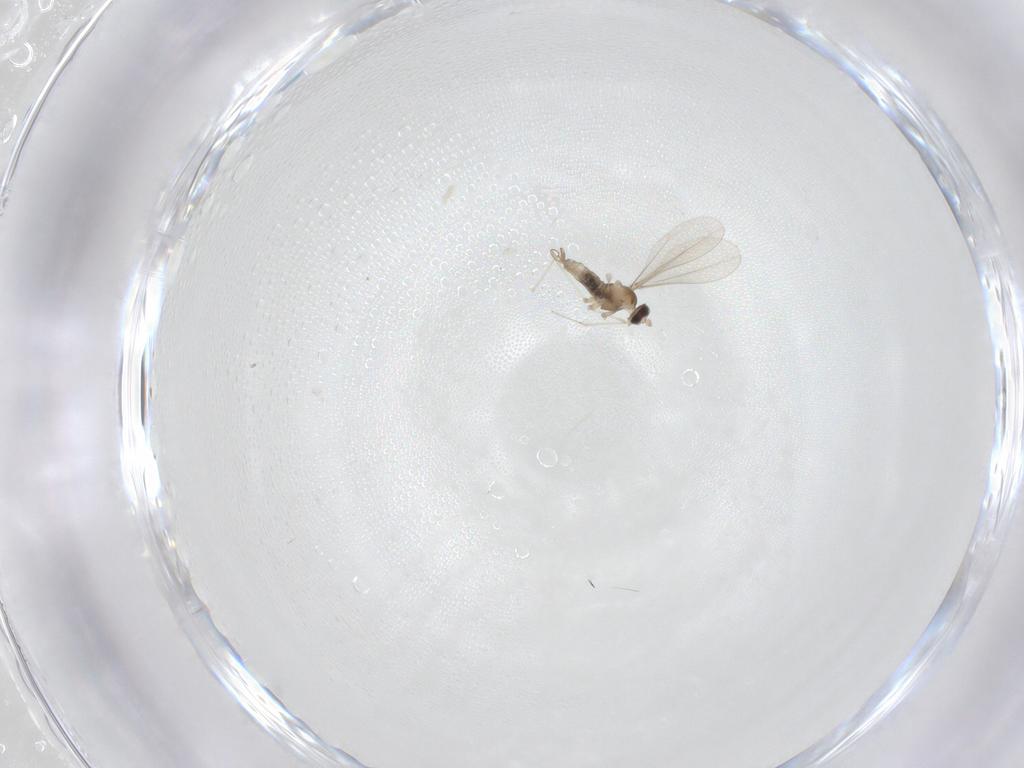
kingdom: Animalia
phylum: Arthropoda
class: Insecta
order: Diptera
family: Cecidomyiidae
